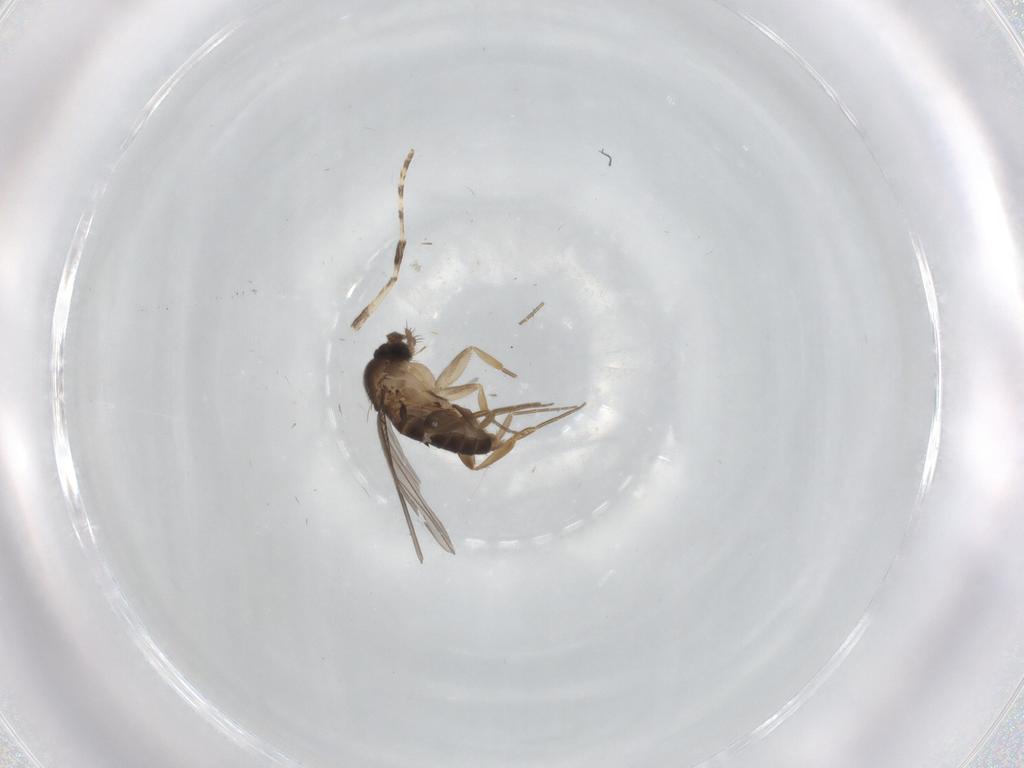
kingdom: Animalia
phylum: Arthropoda
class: Insecta
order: Diptera
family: Phoridae
